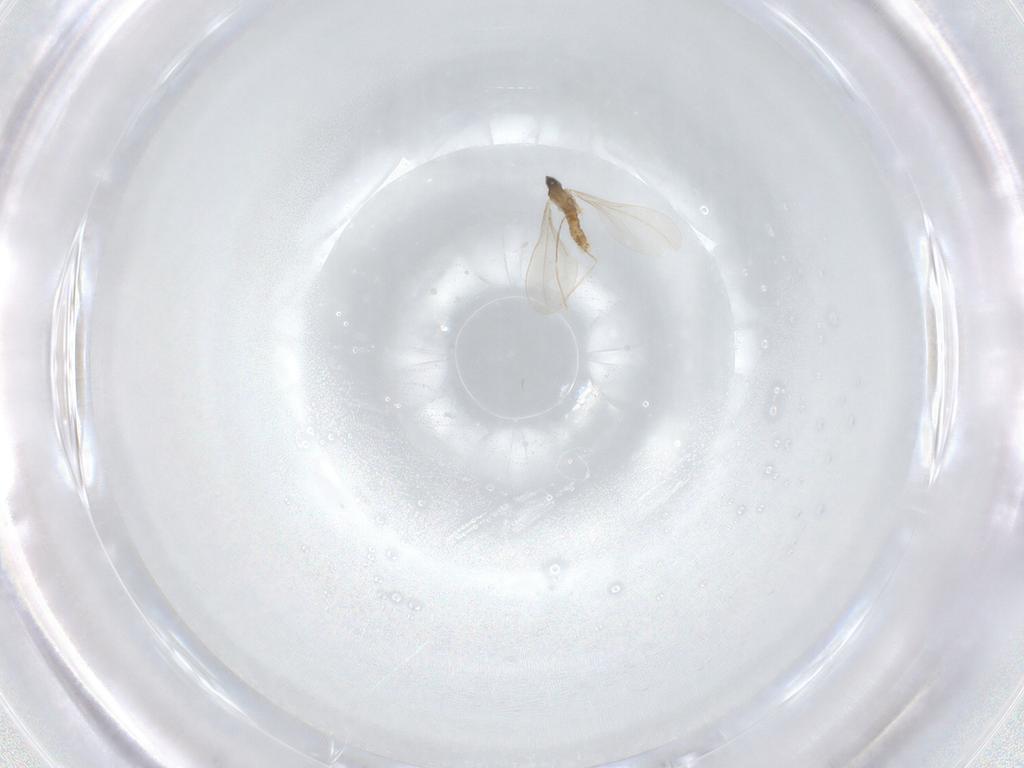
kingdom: Animalia
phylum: Arthropoda
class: Insecta
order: Diptera
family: Cecidomyiidae
